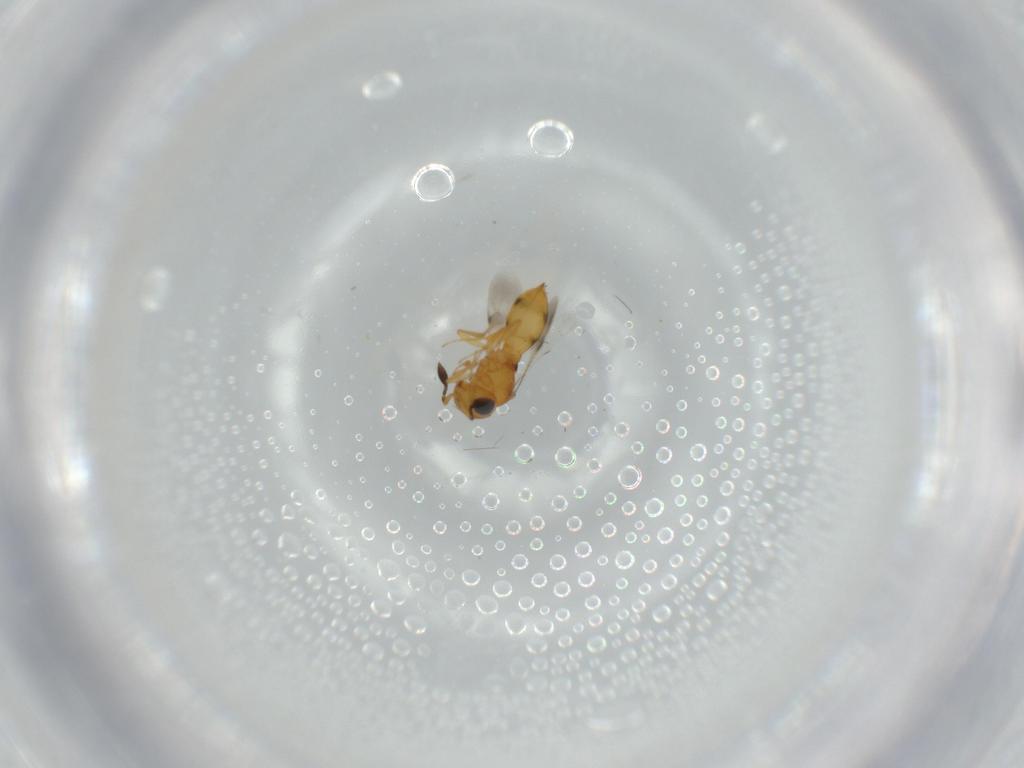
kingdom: Animalia
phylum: Arthropoda
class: Insecta
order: Hymenoptera
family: Scelionidae
